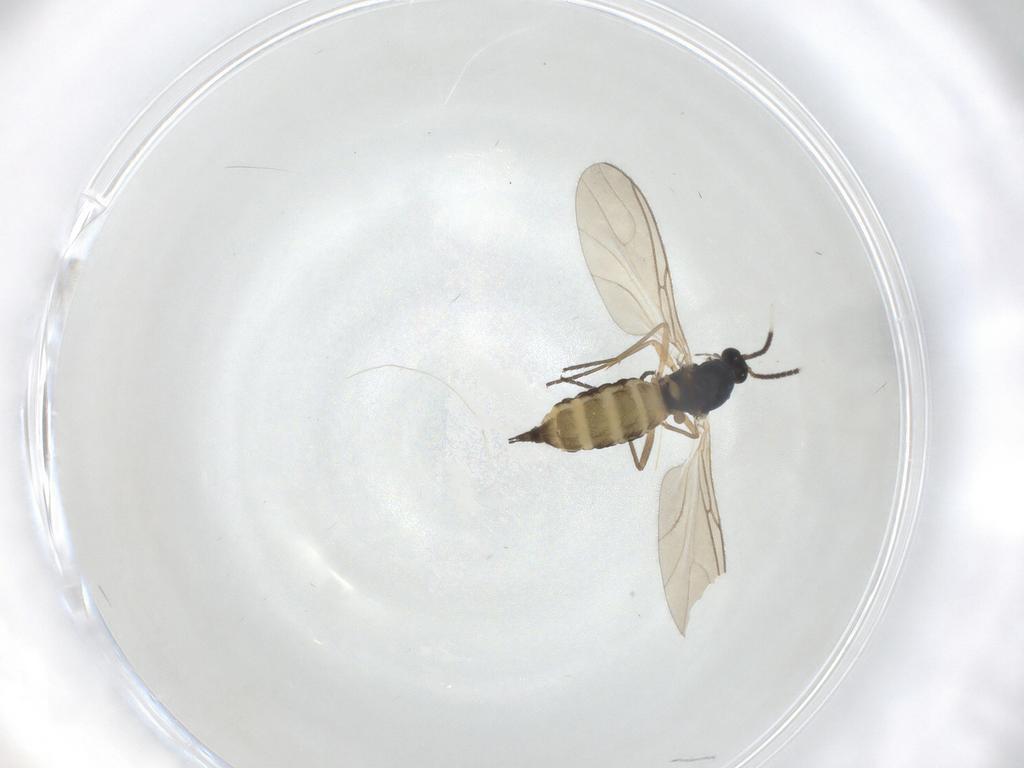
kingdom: Animalia
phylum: Arthropoda
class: Insecta
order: Diptera
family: Sciaridae
